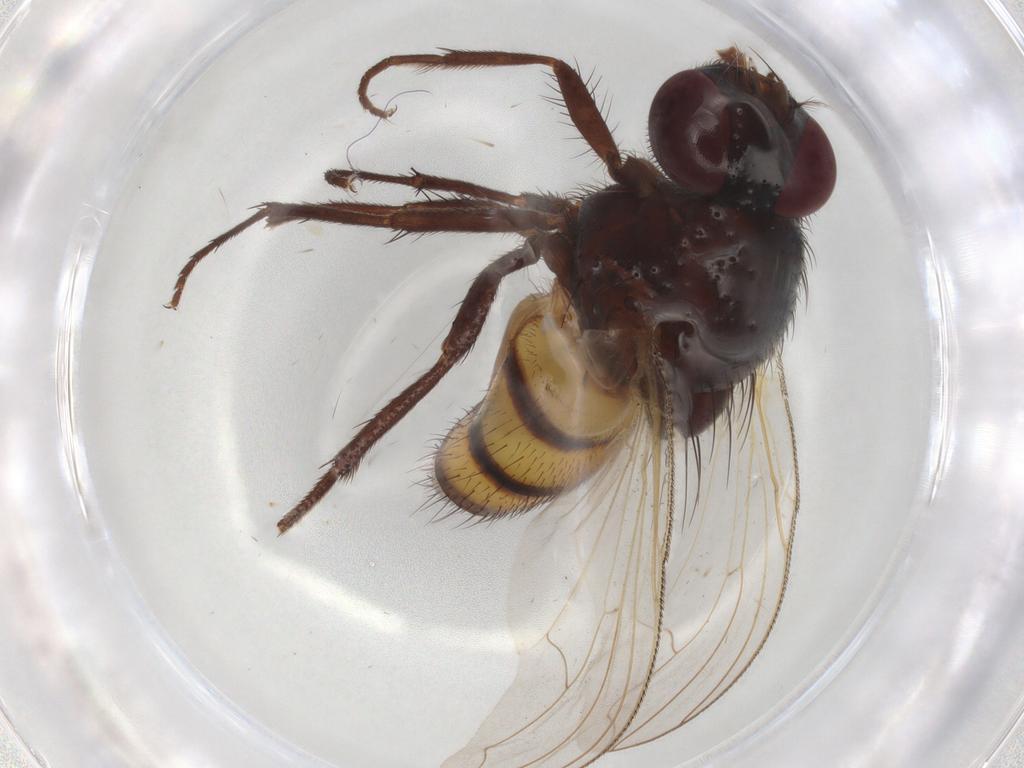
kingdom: Animalia
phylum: Arthropoda
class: Insecta
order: Diptera
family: Muscidae
